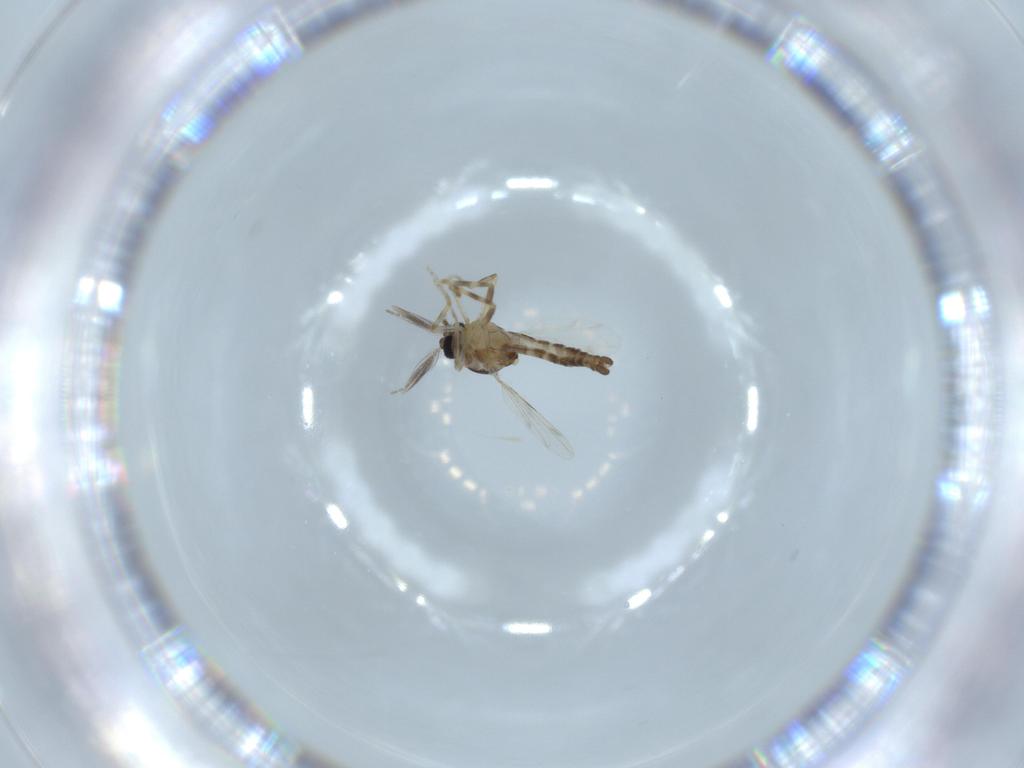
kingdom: Animalia
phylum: Arthropoda
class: Insecta
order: Diptera
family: Ceratopogonidae
